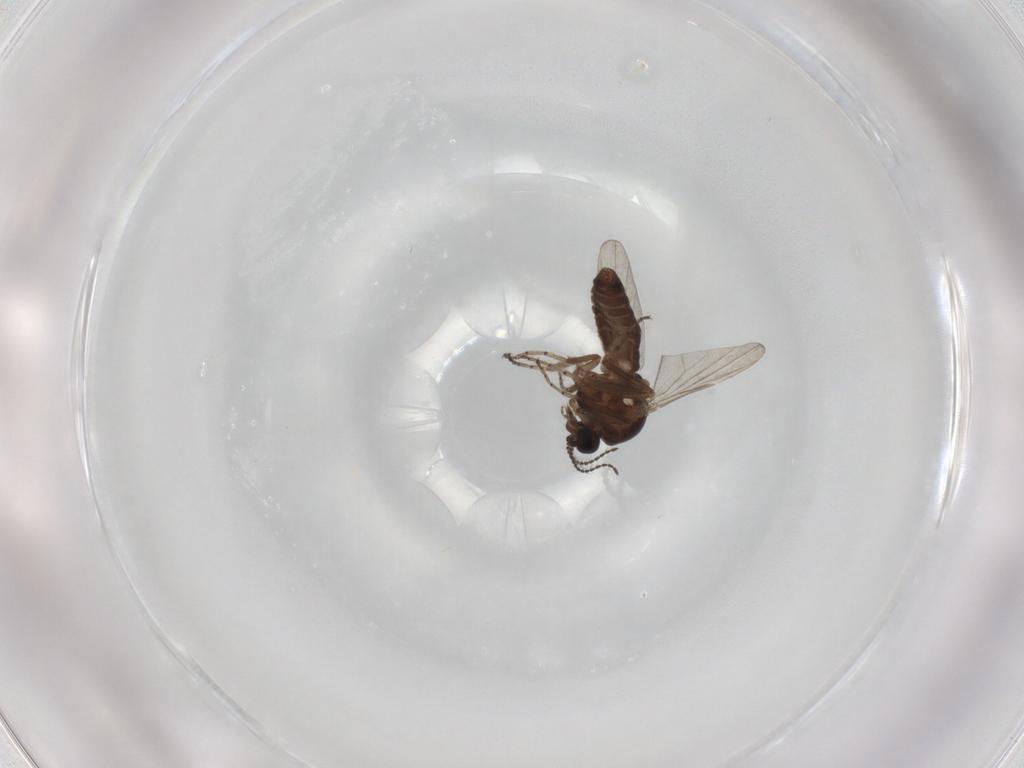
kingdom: Animalia
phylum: Arthropoda
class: Insecta
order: Diptera
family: Ceratopogonidae
